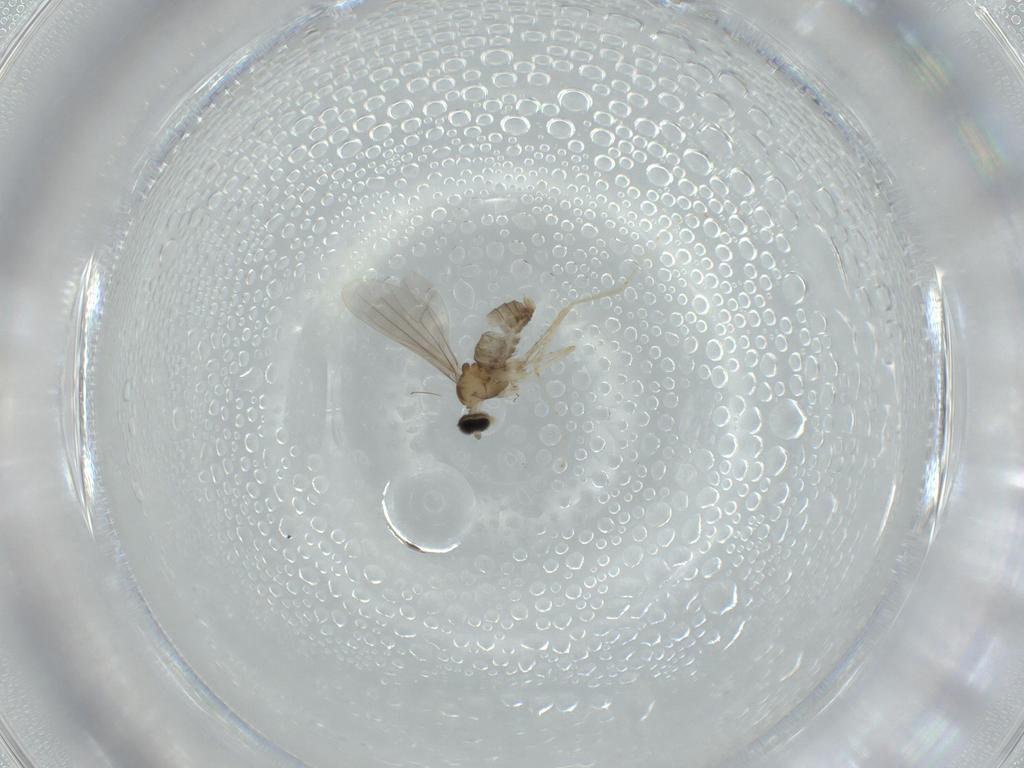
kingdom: Animalia
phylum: Arthropoda
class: Insecta
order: Diptera
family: Cecidomyiidae
